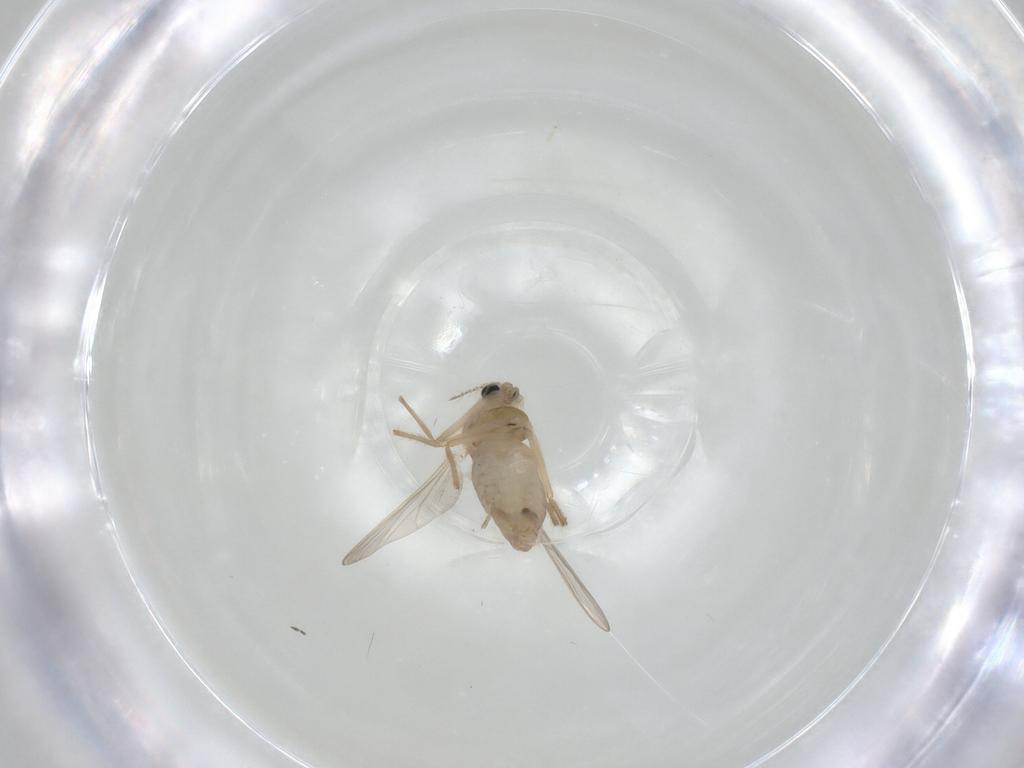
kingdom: Animalia
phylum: Arthropoda
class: Insecta
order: Diptera
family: Chironomidae
